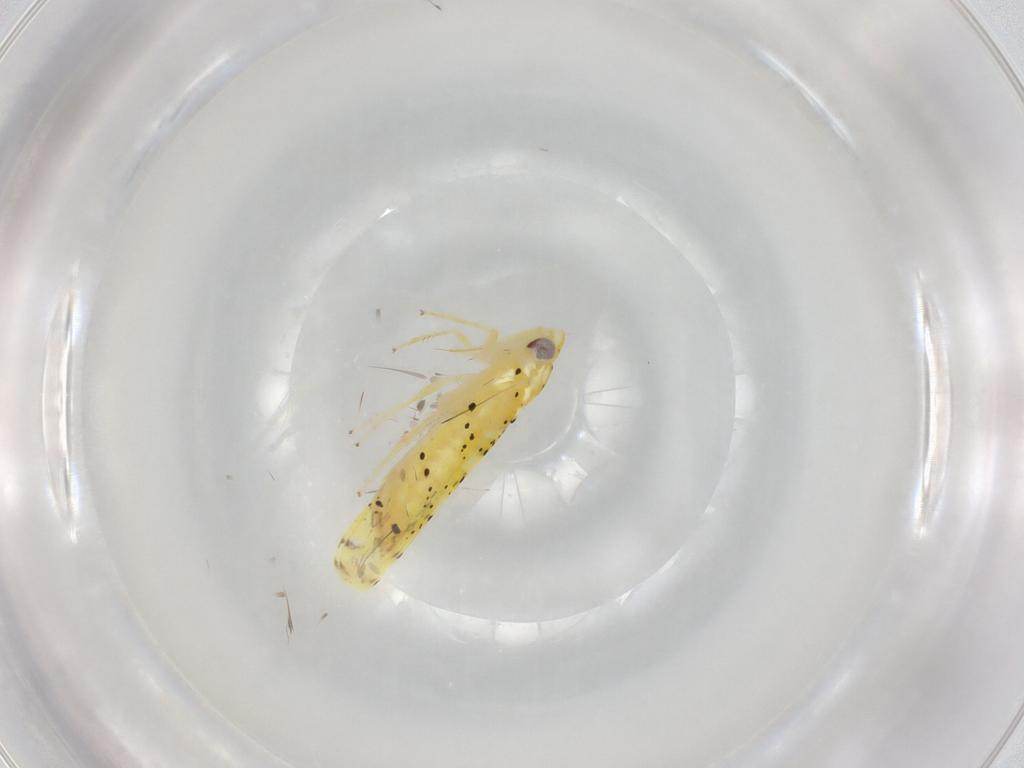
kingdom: Animalia
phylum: Arthropoda
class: Insecta
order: Hemiptera
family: Cicadellidae
